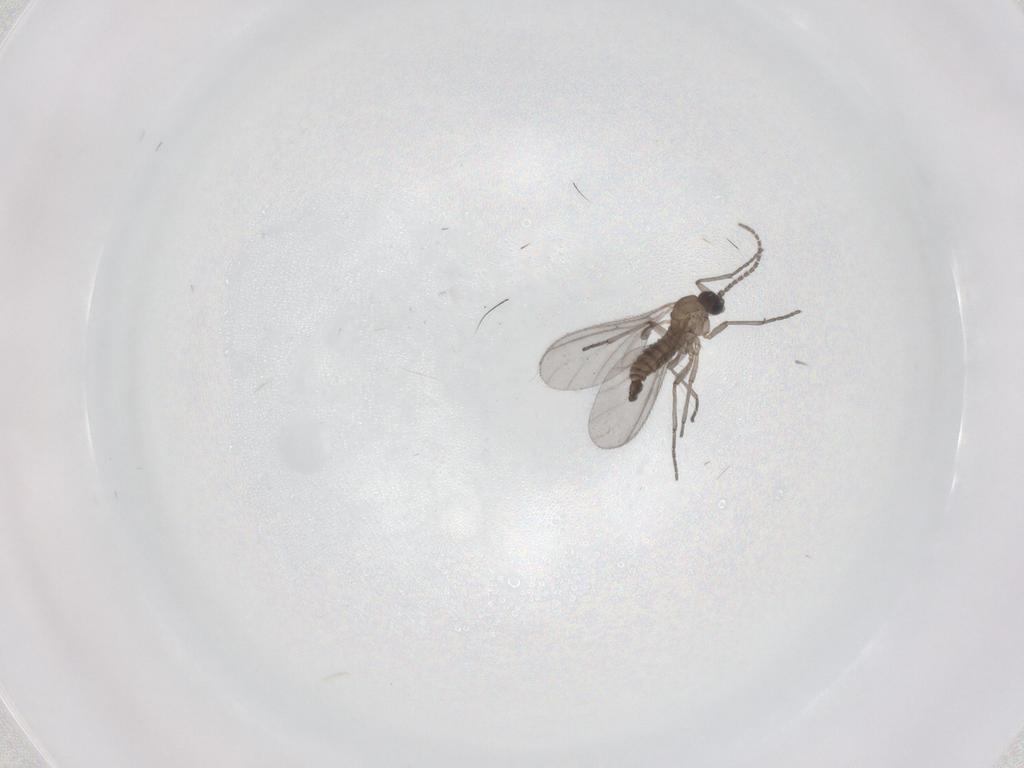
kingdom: Animalia
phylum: Arthropoda
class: Insecta
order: Diptera
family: Sciaridae
